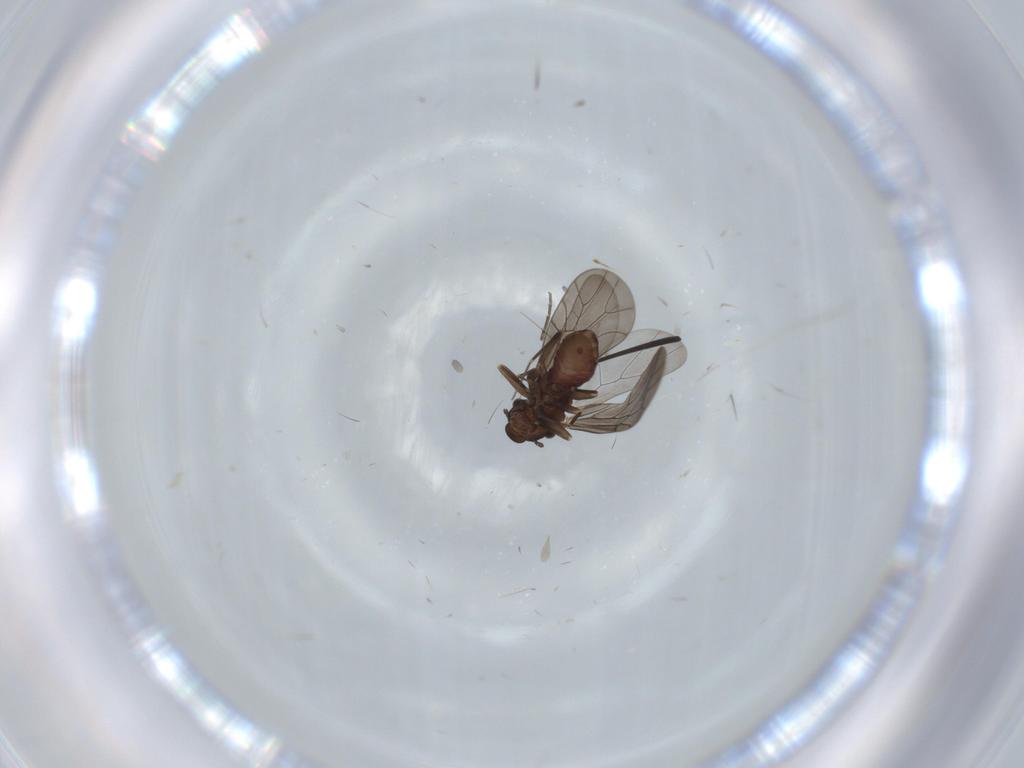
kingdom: Animalia
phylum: Arthropoda
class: Insecta
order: Psocodea
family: Lepidopsocidae
